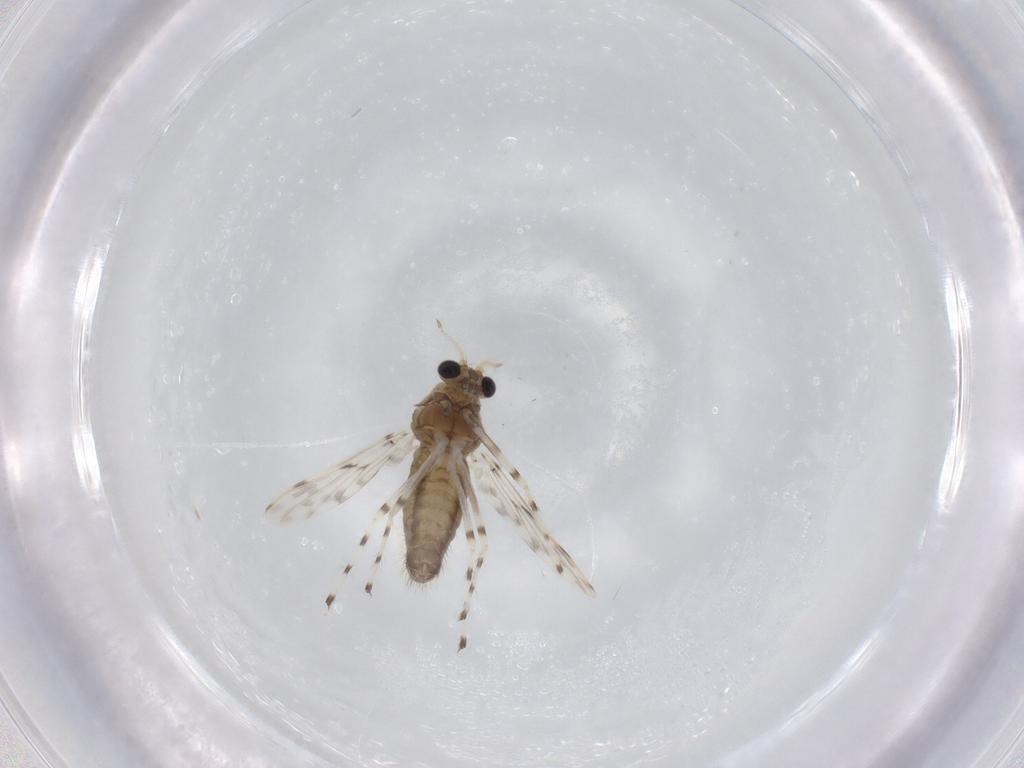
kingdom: Animalia
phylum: Arthropoda
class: Insecta
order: Diptera
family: Chironomidae
